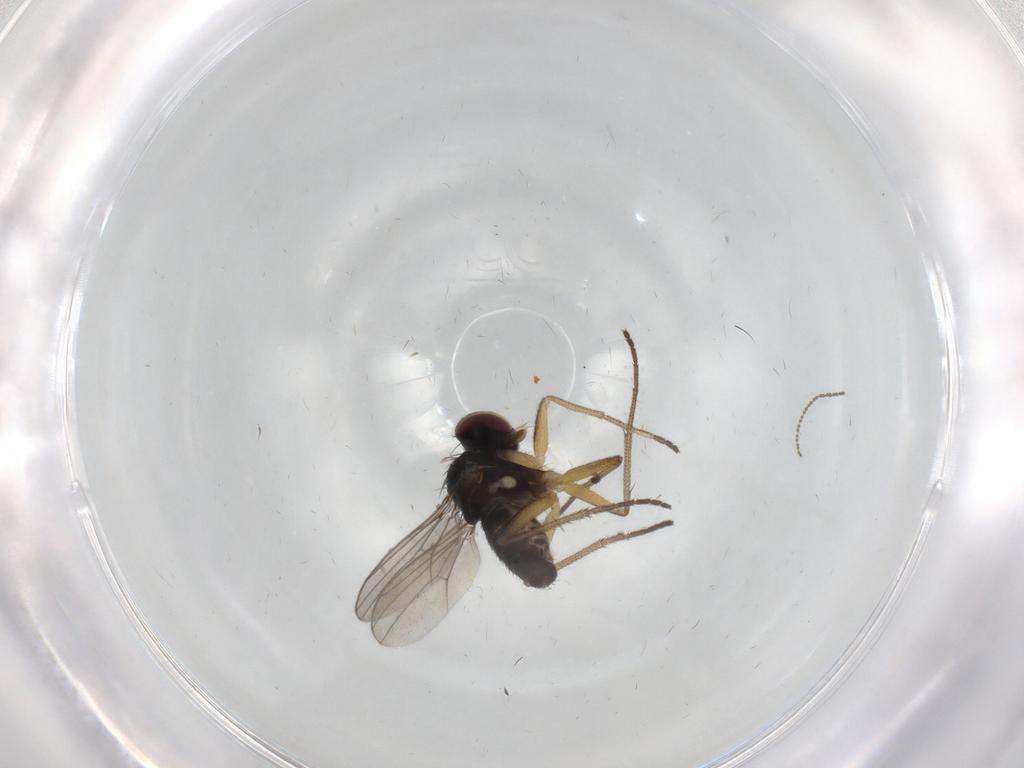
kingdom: Animalia
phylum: Arthropoda
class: Insecta
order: Diptera
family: Dolichopodidae
